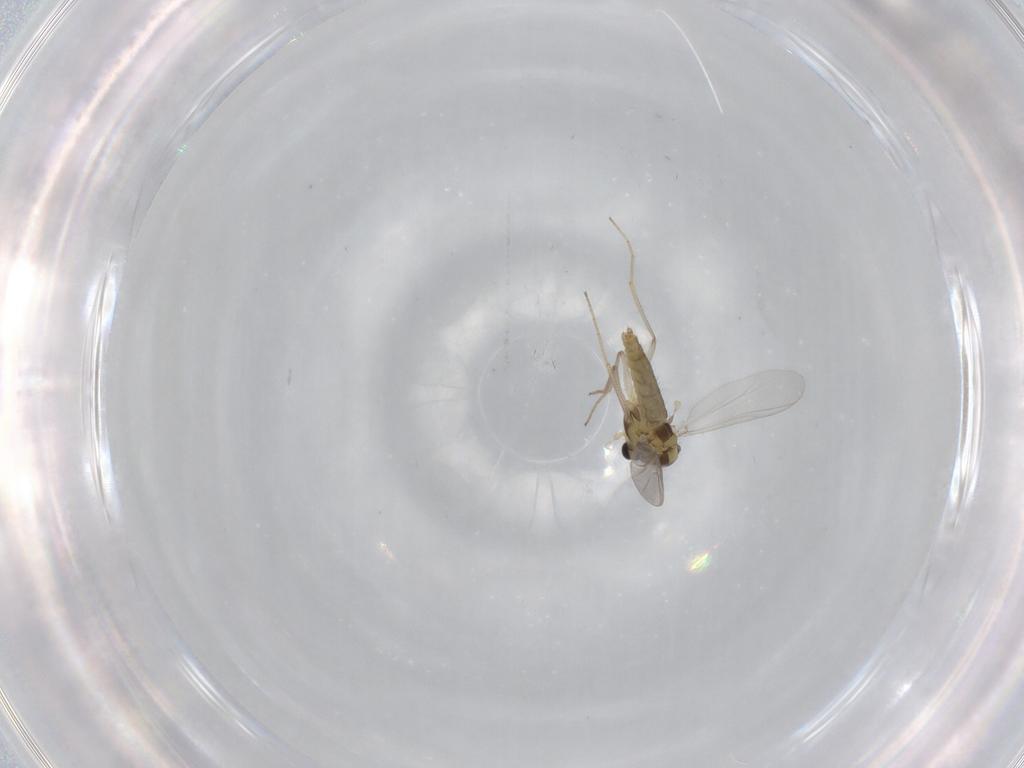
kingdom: Animalia
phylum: Arthropoda
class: Insecta
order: Diptera
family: Chironomidae
